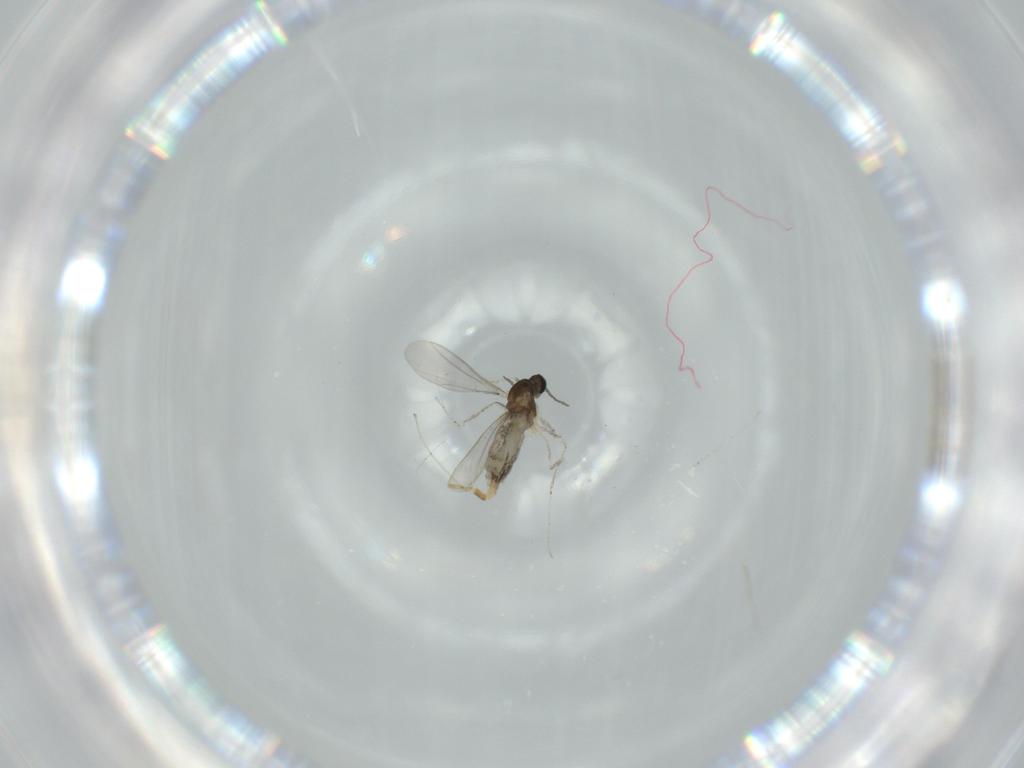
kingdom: Animalia
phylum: Arthropoda
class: Insecta
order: Diptera
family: Cecidomyiidae
